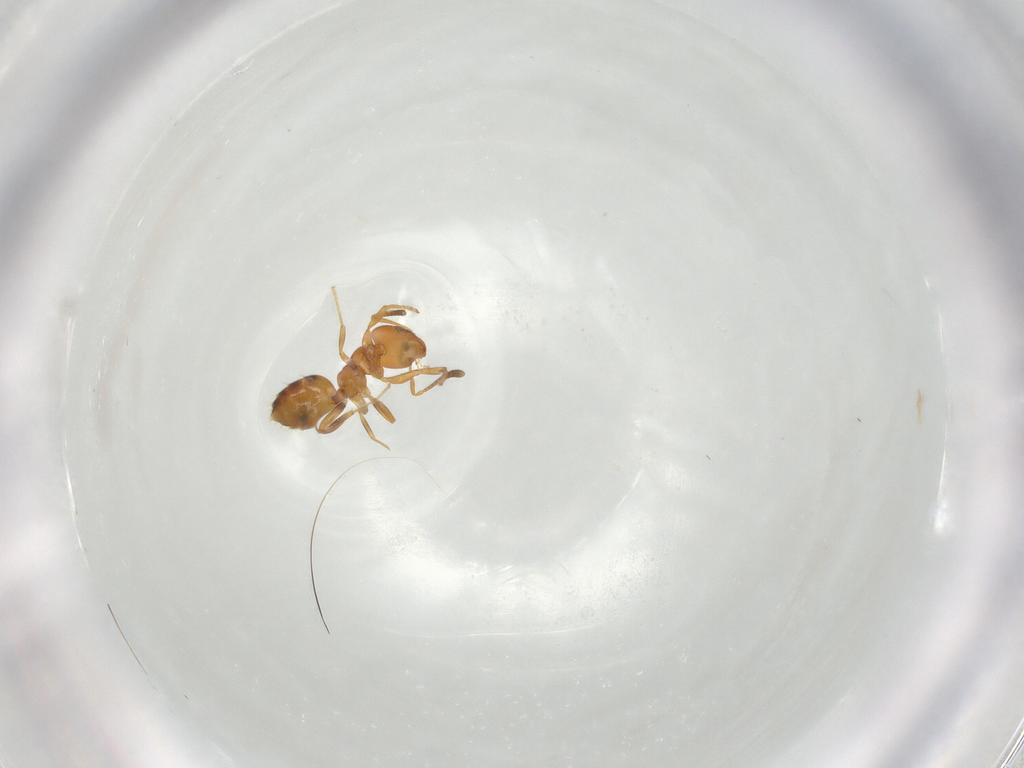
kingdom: Animalia
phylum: Arthropoda
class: Insecta
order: Hymenoptera
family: Formicidae
